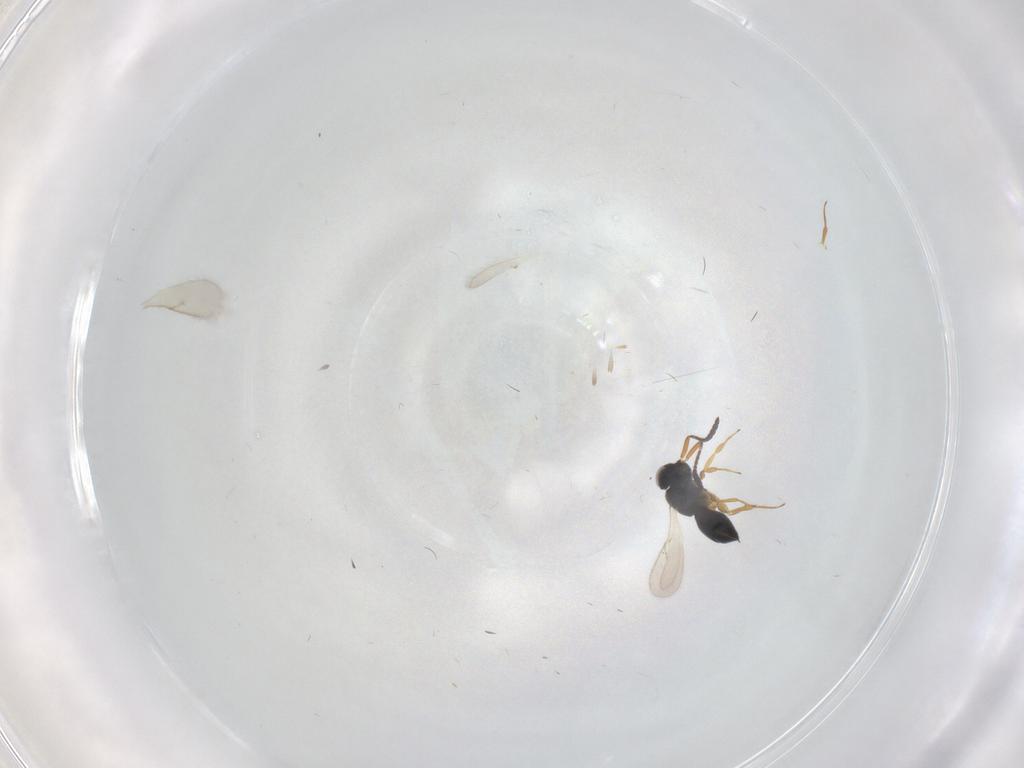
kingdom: Animalia
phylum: Arthropoda
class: Insecta
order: Hymenoptera
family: Scelionidae
